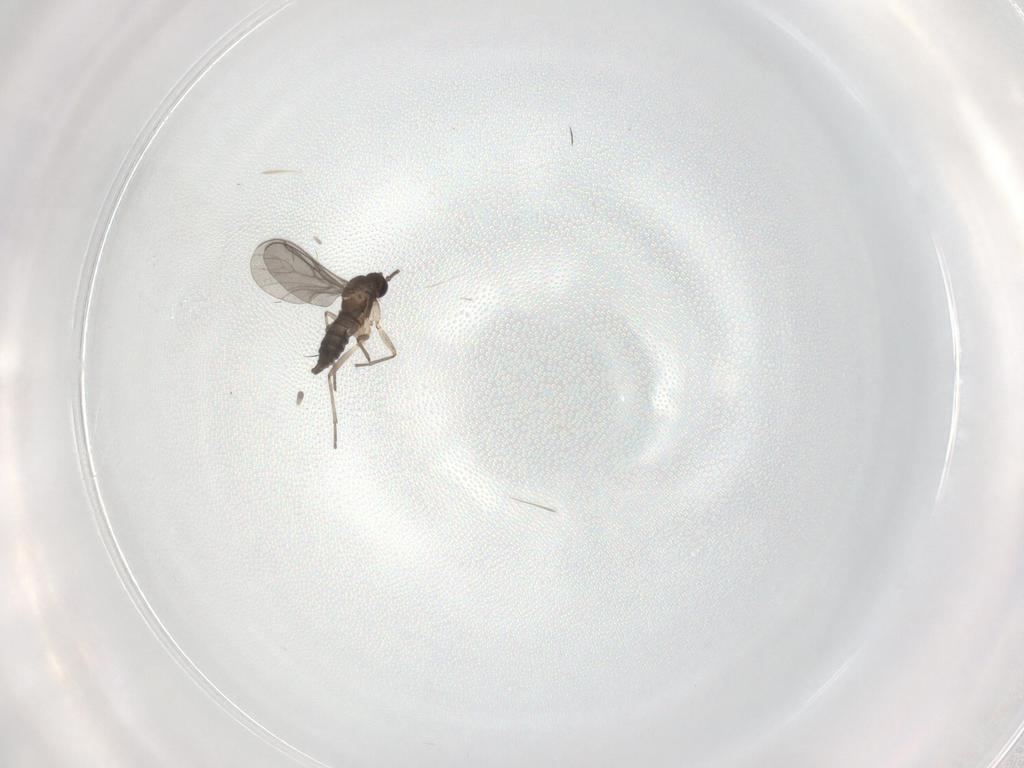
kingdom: Animalia
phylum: Arthropoda
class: Insecta
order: Diptera
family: Sciaridae
